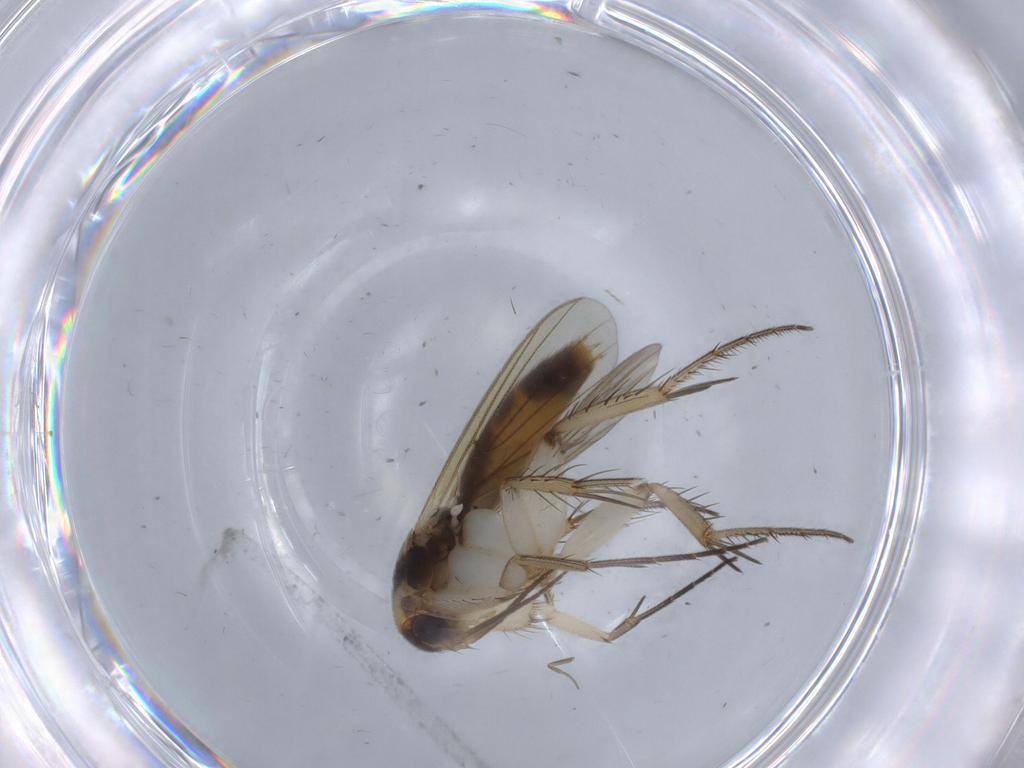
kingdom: Animalia
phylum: Arthropoda
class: Insecta
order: Diptera
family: Mycetophilidae
